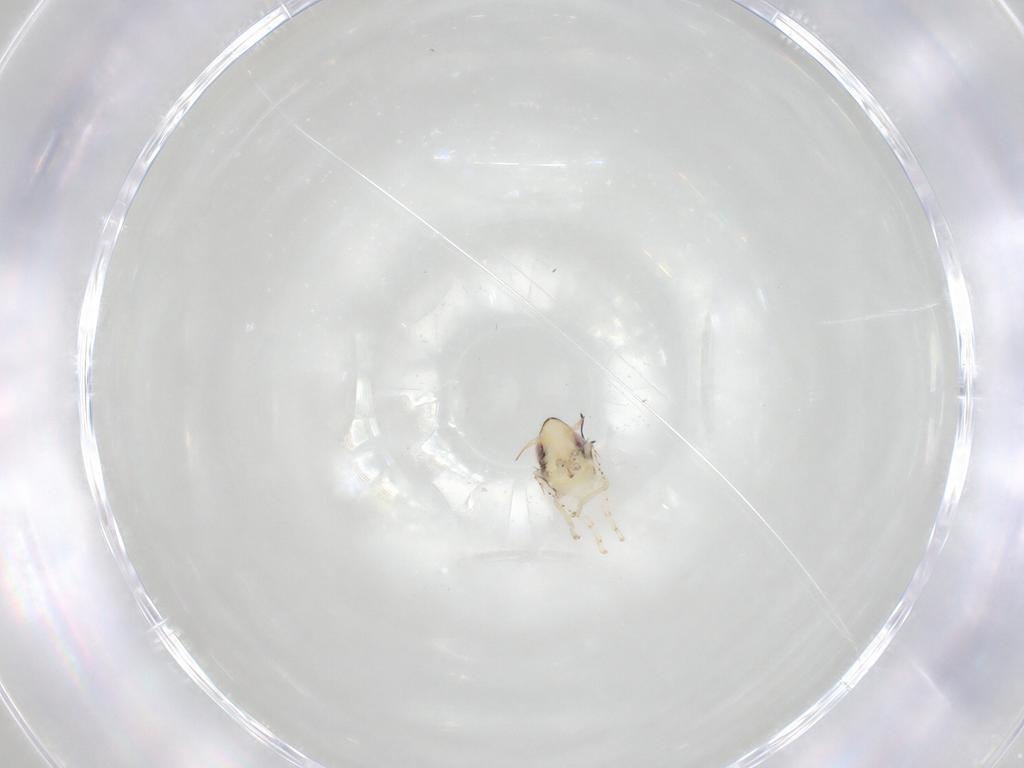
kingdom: Animalia
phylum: Arthropoda
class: Insecta
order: Hemiptera
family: Cicadellidae
